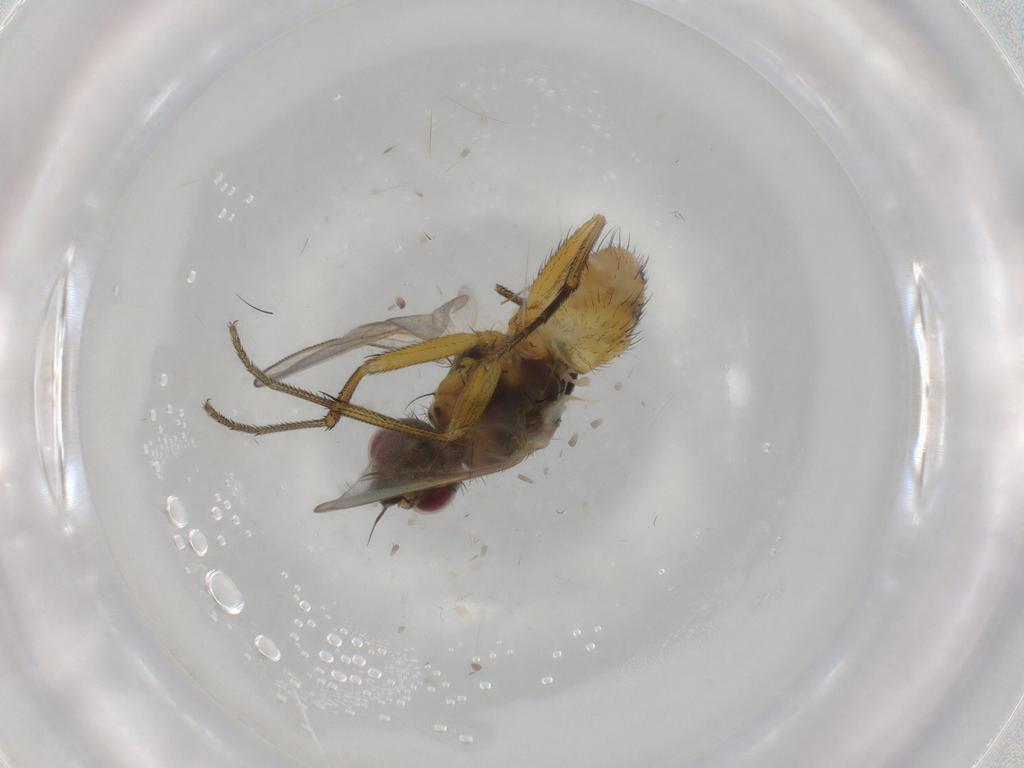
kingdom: Animalia
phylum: Arthropoda
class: Insecta
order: Diptera
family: Muscidae
